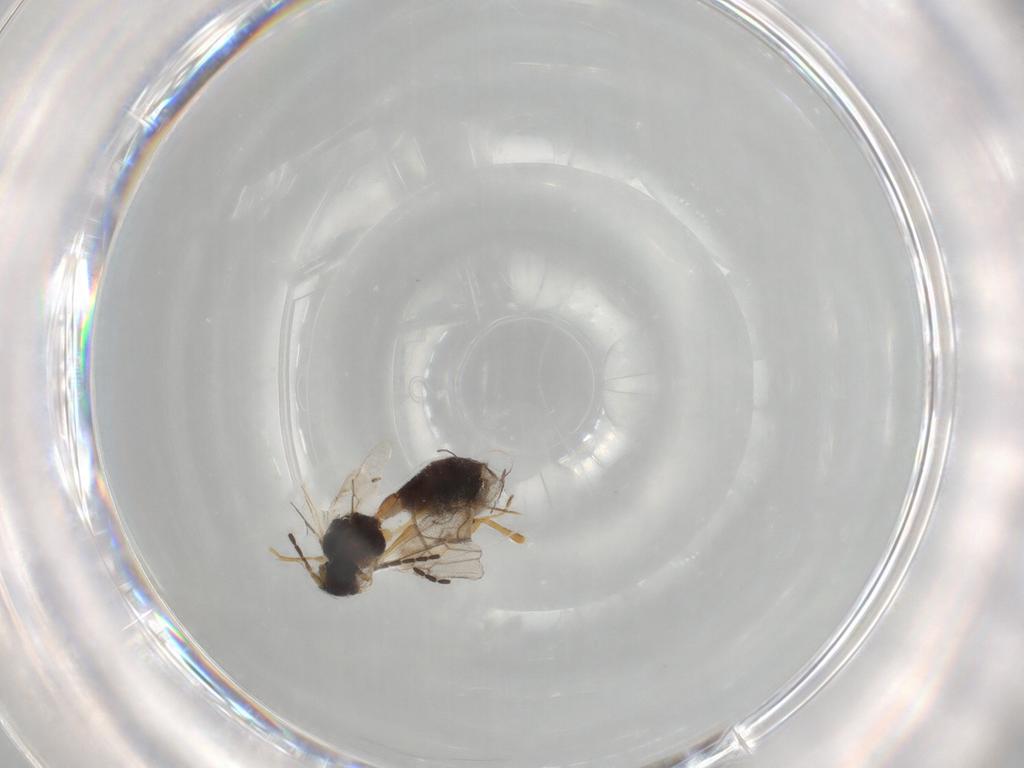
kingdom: Animalia
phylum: Arthropoda
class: Insecta
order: Hymenoptera
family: Braconidae
